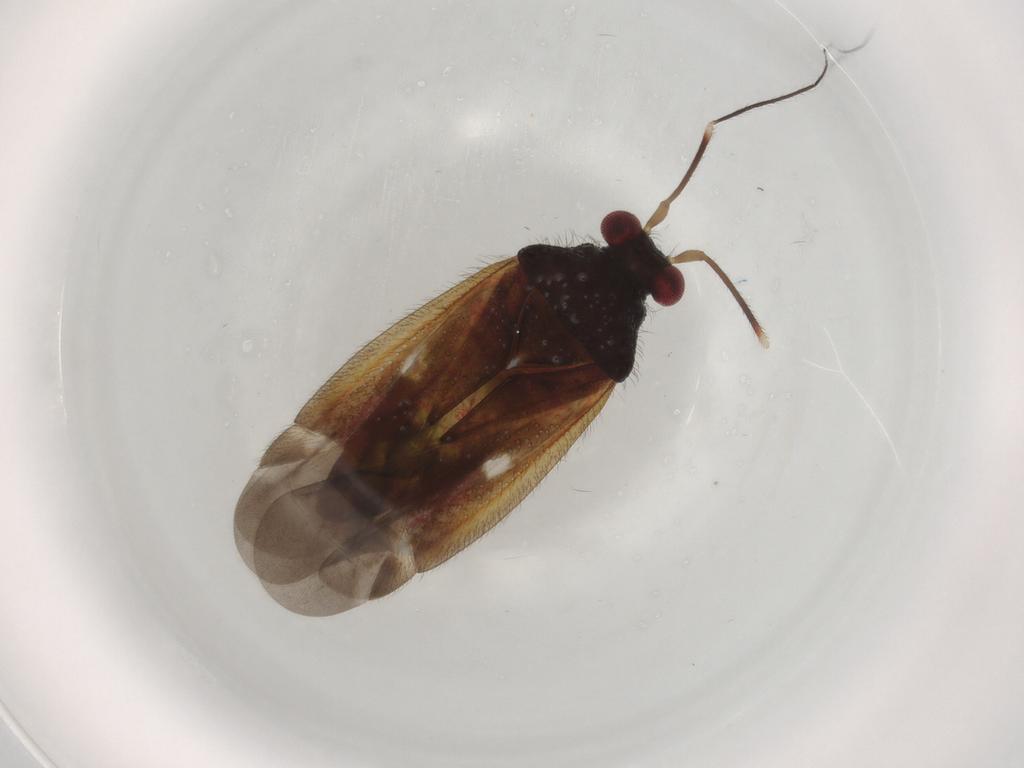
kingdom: Animalia
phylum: Arthropoda
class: Insecta
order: Hemiptera
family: Miridae
